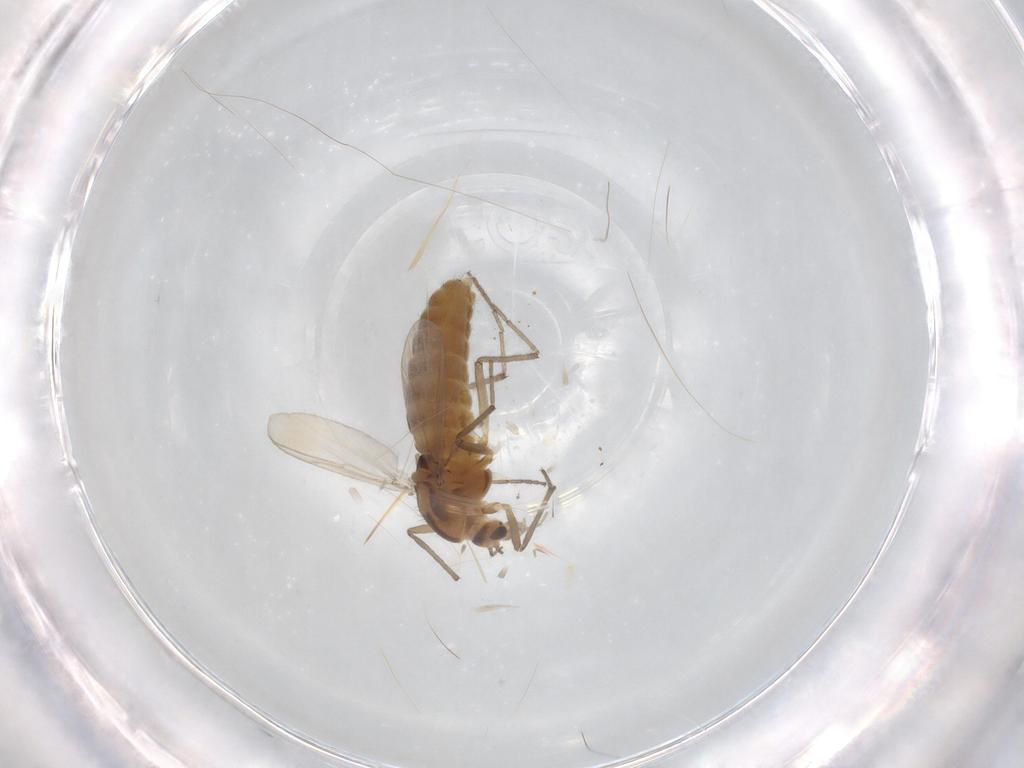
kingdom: Animalia
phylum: Arthropoda
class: Insecta
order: Diptera
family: Chironomidae
